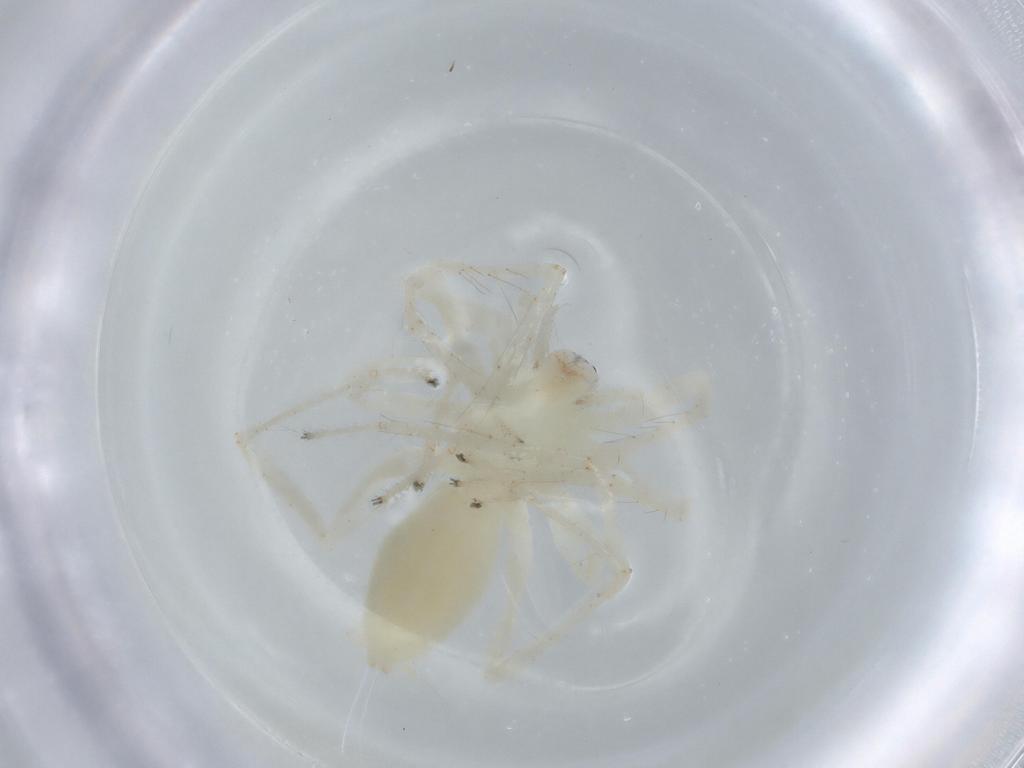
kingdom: Animalia
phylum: Arthropoda
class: Arachnida
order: Araneae
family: Anyphaenidae
